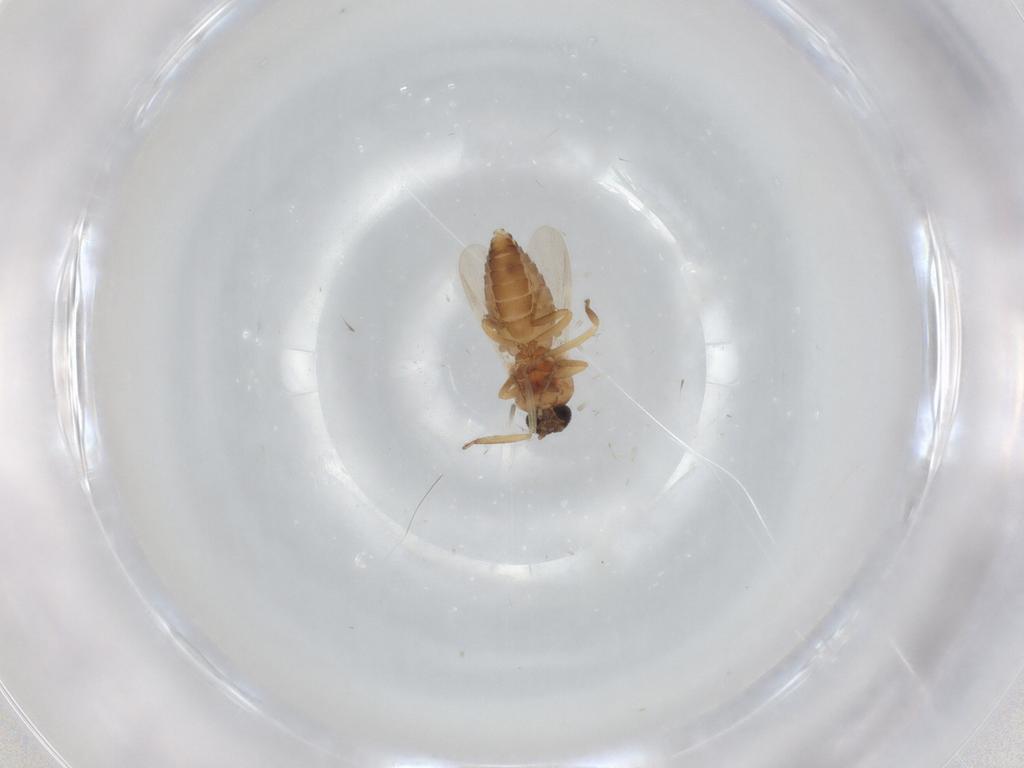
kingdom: Animalia
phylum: Arthropoda
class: Insecta
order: Diptera
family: Ceratopogonidae
